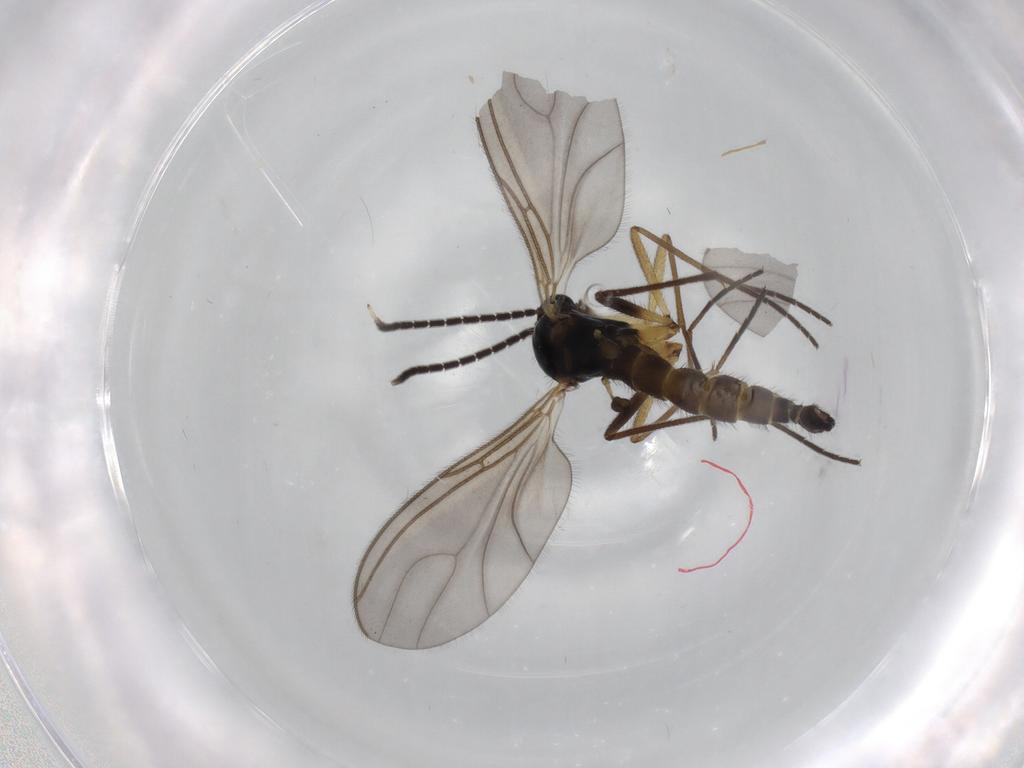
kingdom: Animalia
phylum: Arthropoda
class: Insecta
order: Diptera
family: Sciaridae
